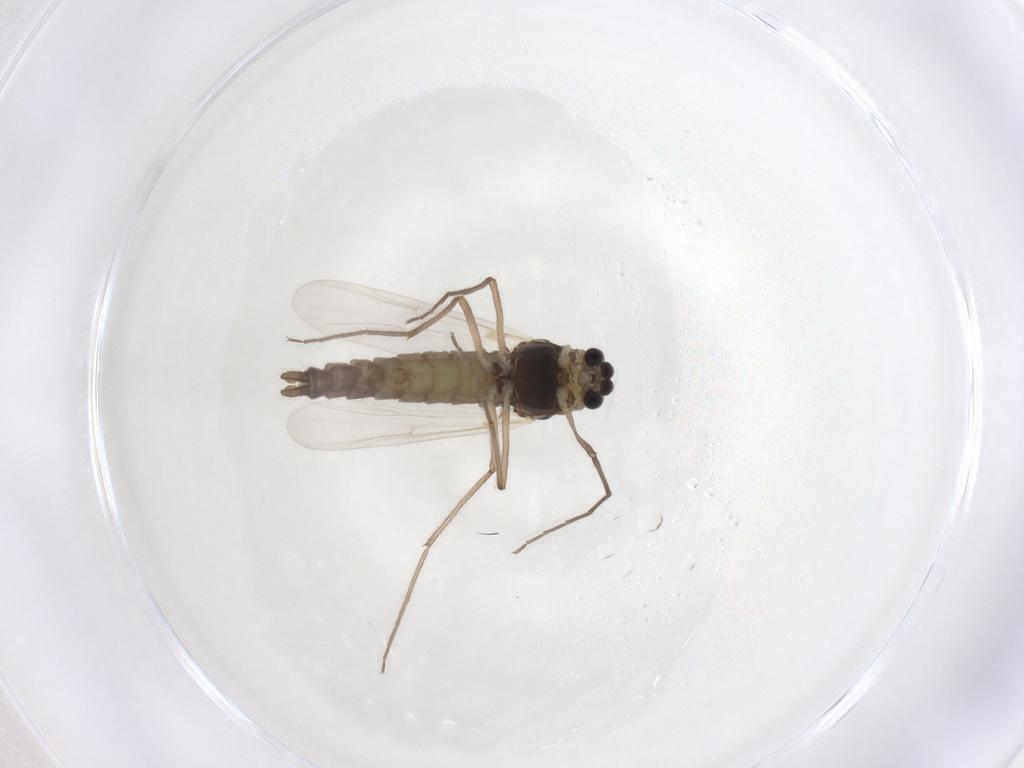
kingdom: Animalia
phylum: Arthropoda
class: Insecta
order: Diptera
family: Chironomidae
